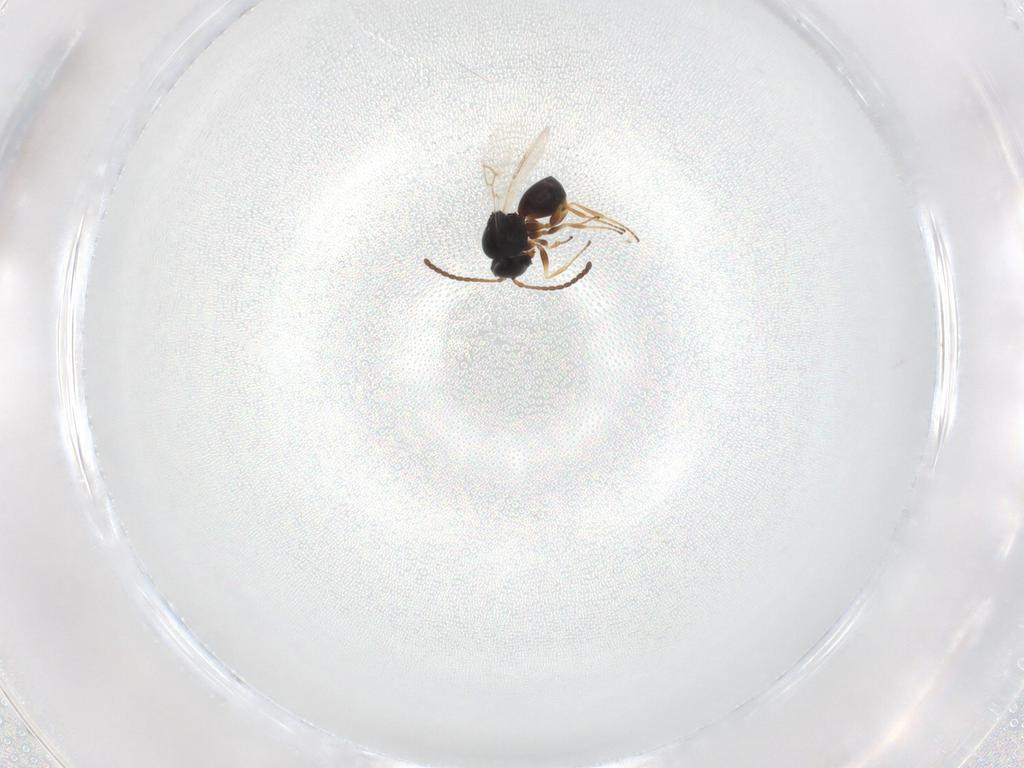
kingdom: Animalia
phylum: Arthropoda
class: Insecta
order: Hymenoptera
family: Figitidae
